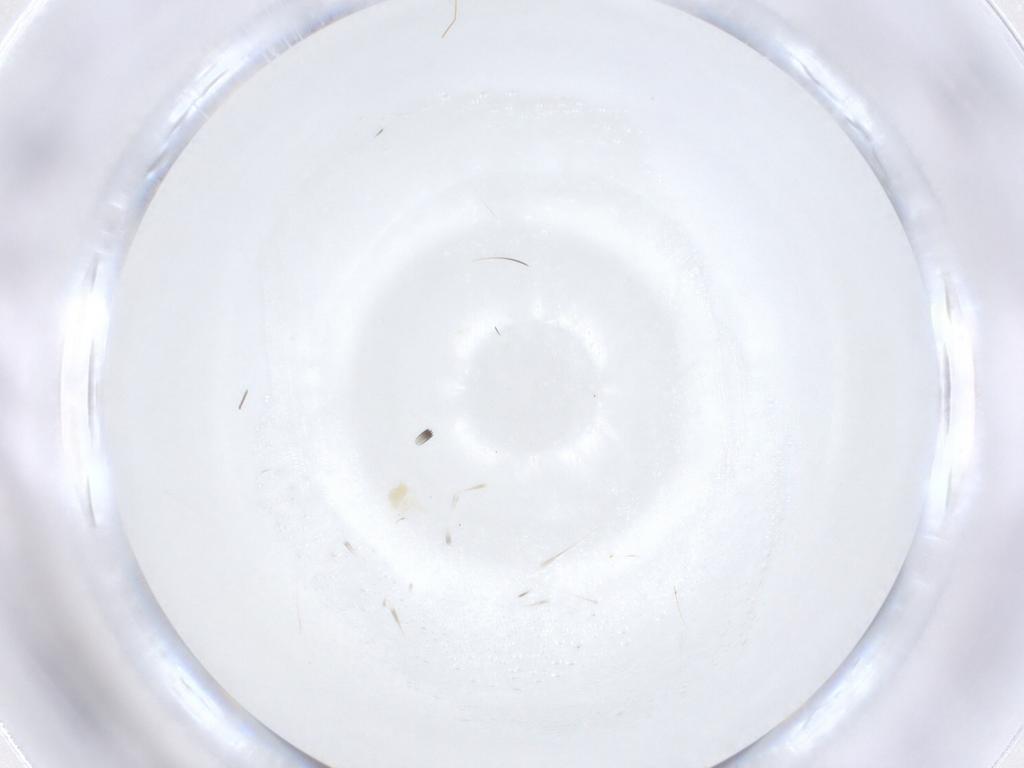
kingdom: Animalia
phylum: Arthropoda
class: Insecta
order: Diptera
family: Chironomidae
